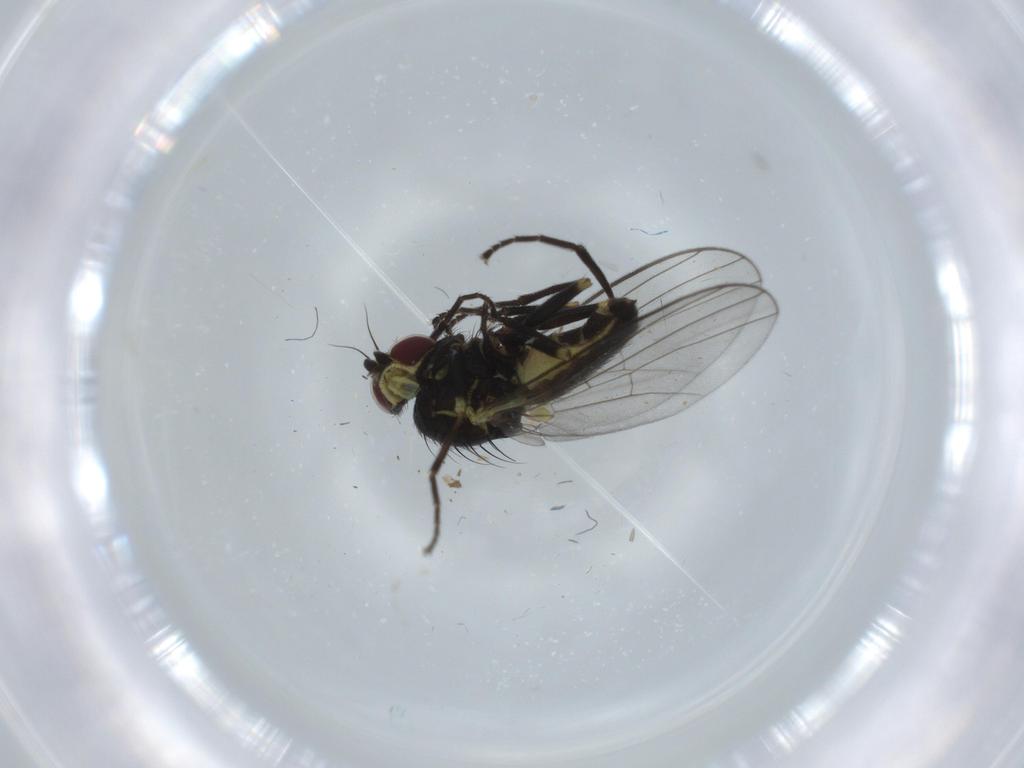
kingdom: Animalia
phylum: Arthropoda
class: Insecta
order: Diptera
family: Agromyzidae
